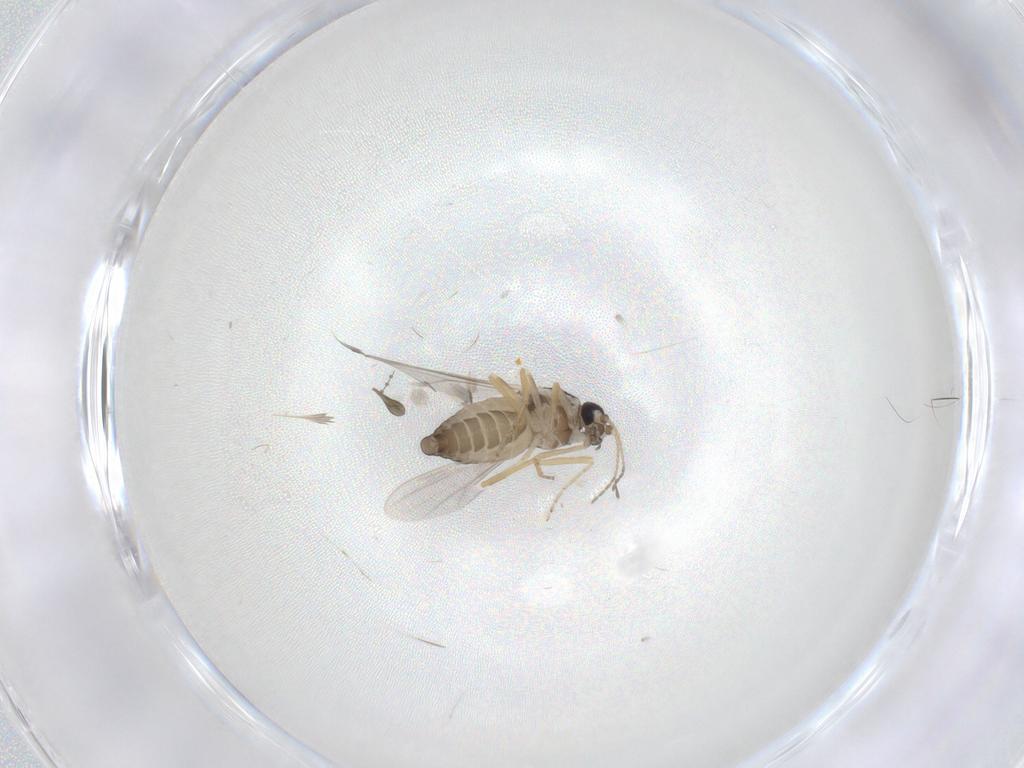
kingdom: Animalia
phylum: Arthropoda
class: Insecta
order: Diptera
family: Ceratopogonidae
